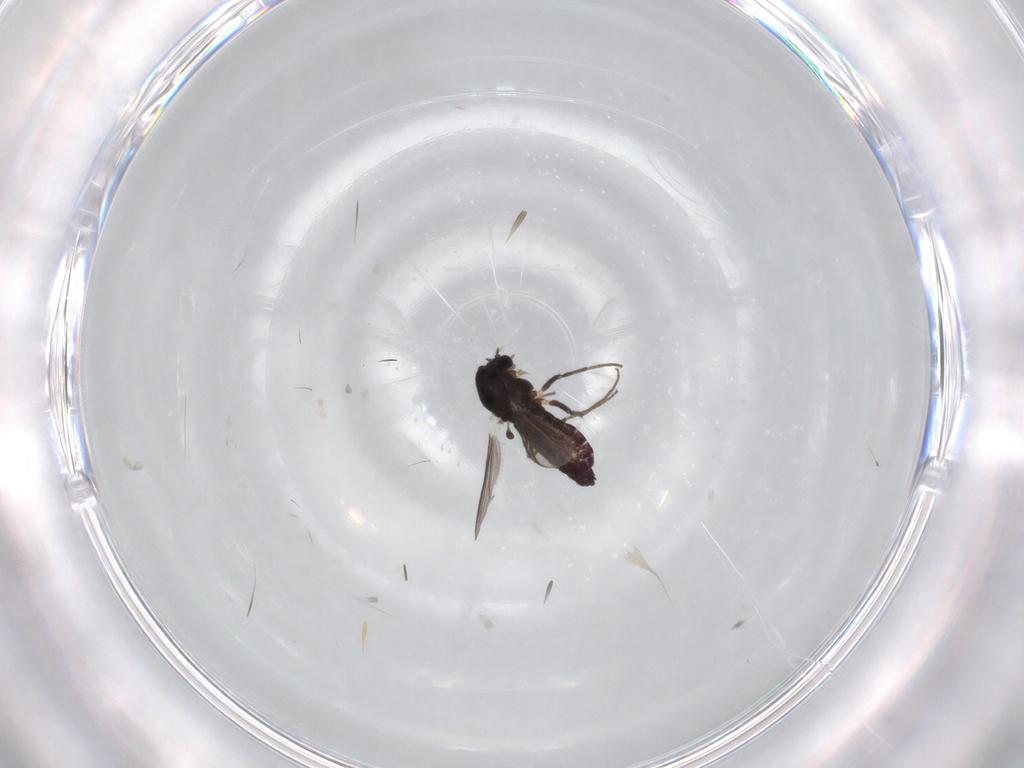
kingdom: Animalia
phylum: Arthropoda
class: Insecta
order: Diptera
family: Chironomidae
